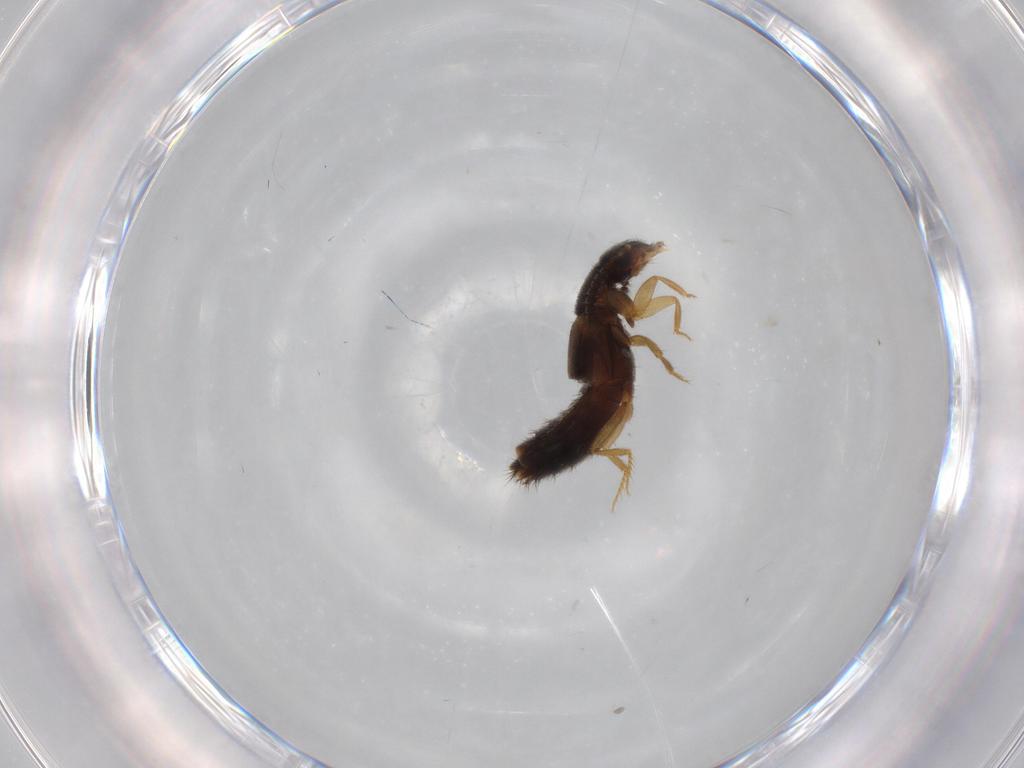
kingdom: Animalia
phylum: Arthropoda
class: Insecta
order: Coleoptera
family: Staphylinidae
